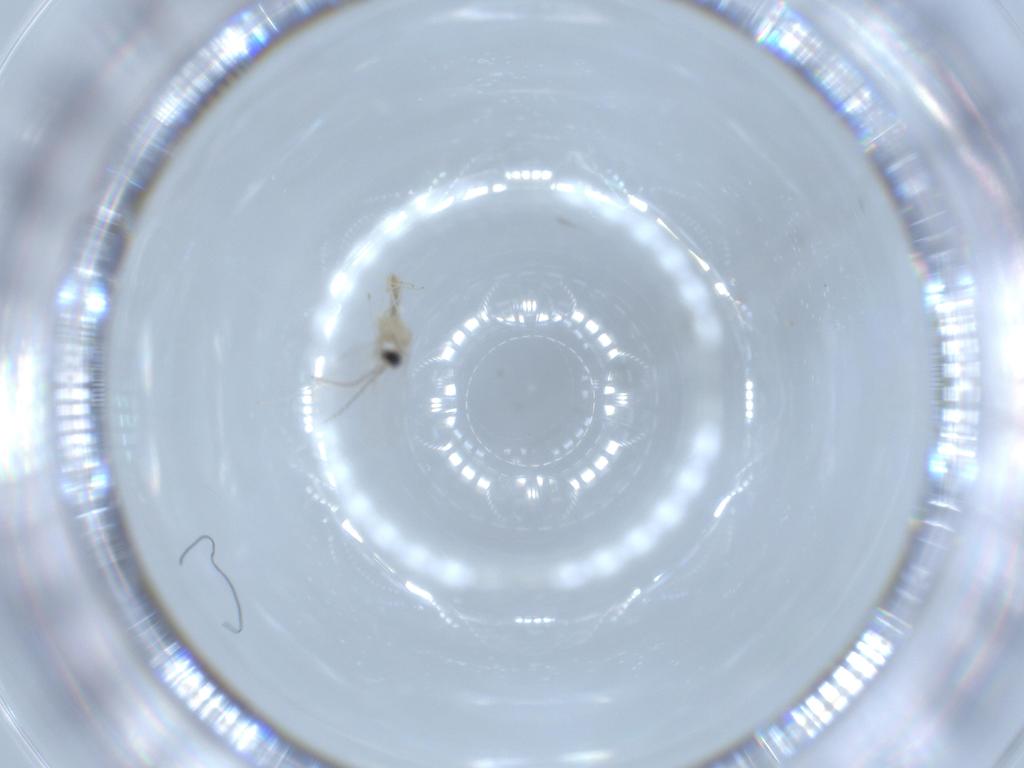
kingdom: Animalia
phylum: Arthropoda
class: Insecta
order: Diptera
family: Cecidomyiidae
